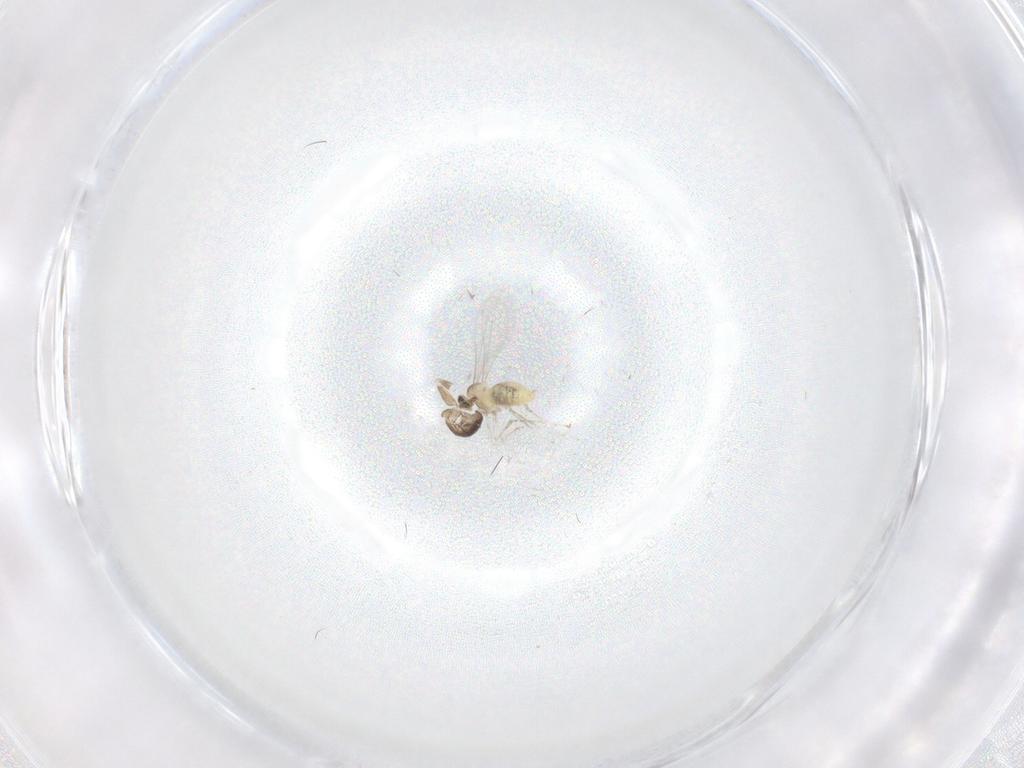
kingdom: Animalia
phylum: Arthropoda
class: Insecta
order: Diptera
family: Cecidomyiidae
